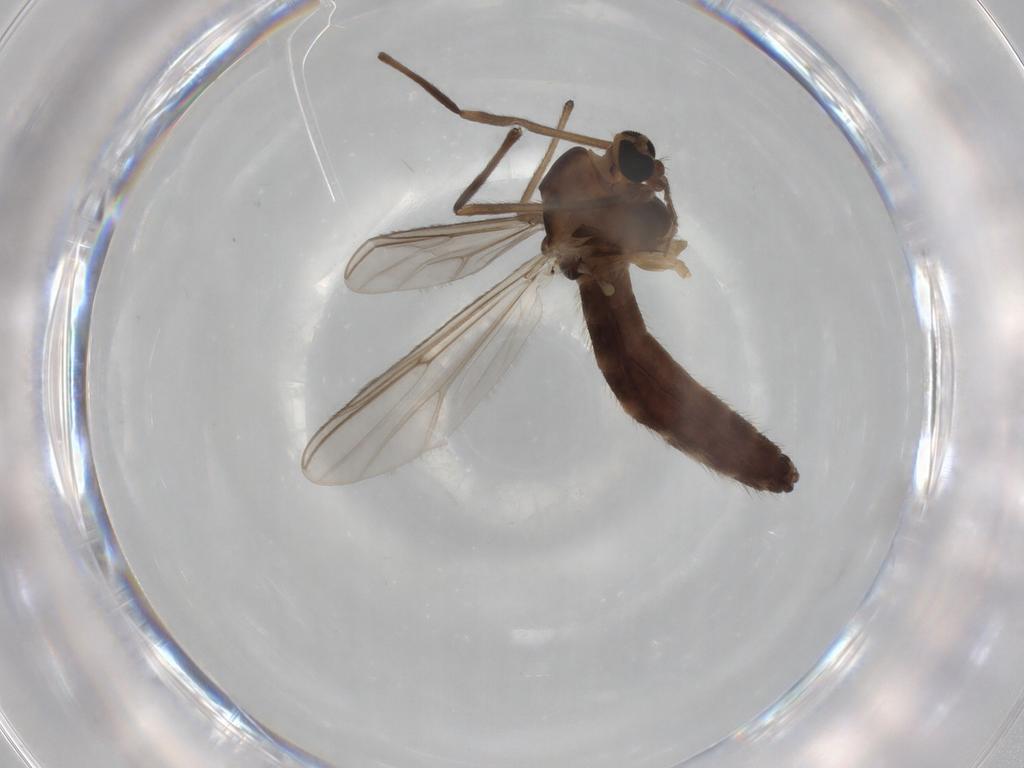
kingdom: Animalia
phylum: Arthropoda
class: Insecta
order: Diptera
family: Chironomidae
